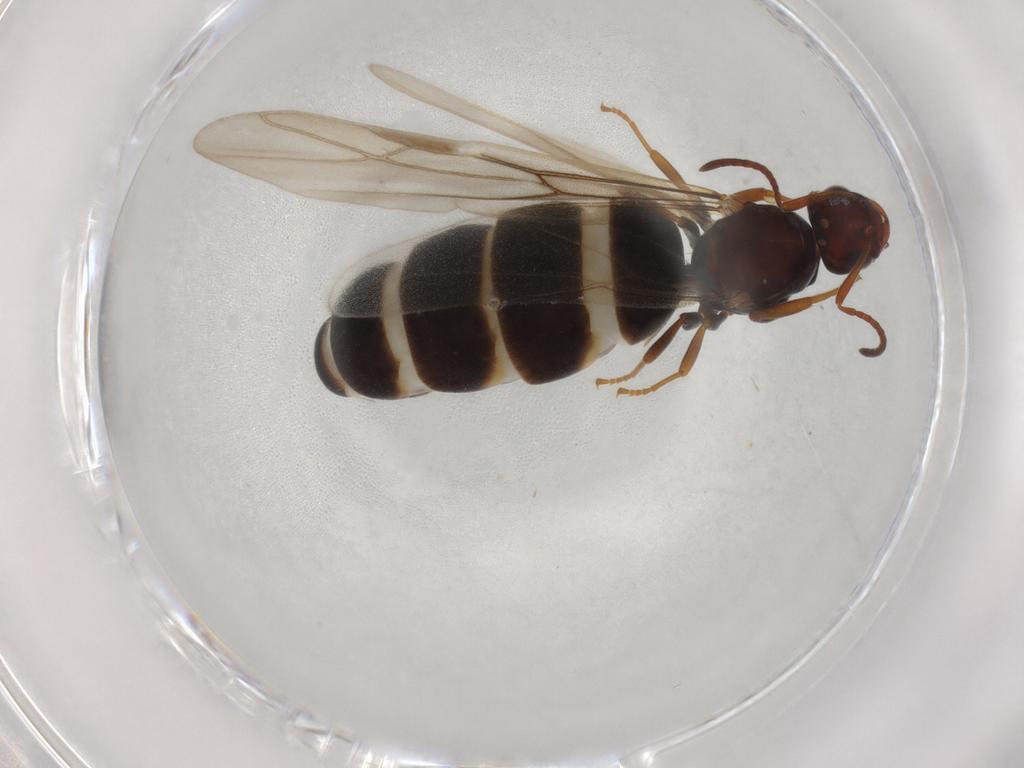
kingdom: Animalia
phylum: Arthropoda
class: Insecta
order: Hymenoptera
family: Formicidae
